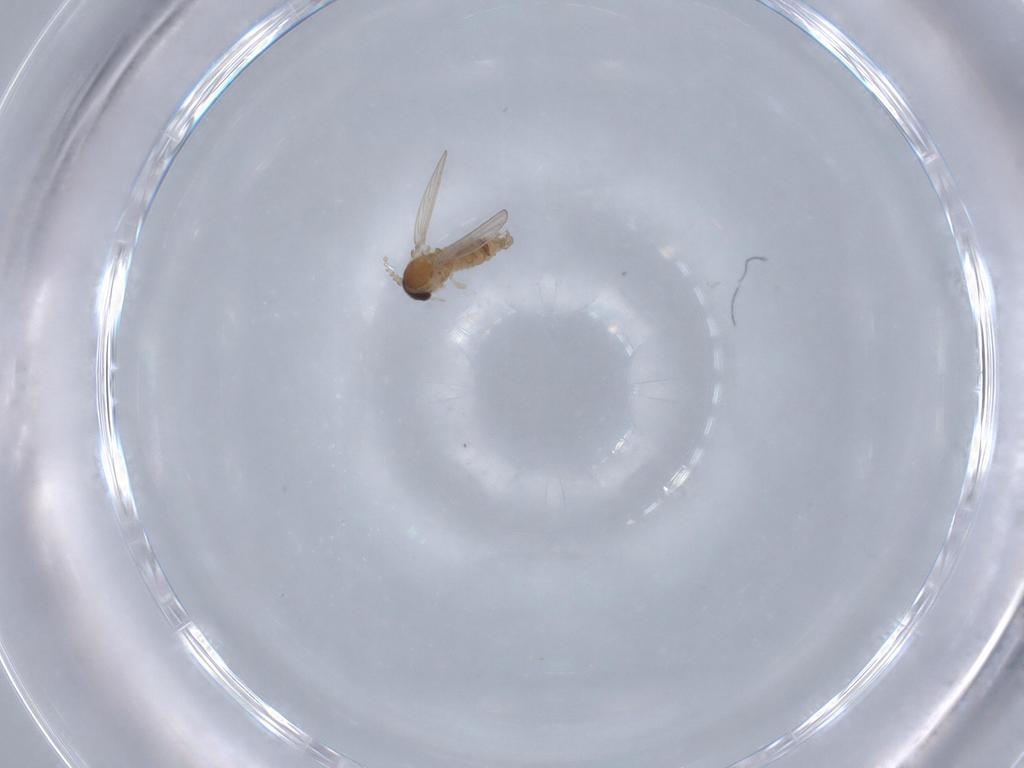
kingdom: Animalia
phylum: Arthropoda
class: Insecta
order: Diptera
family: Psychodidae
